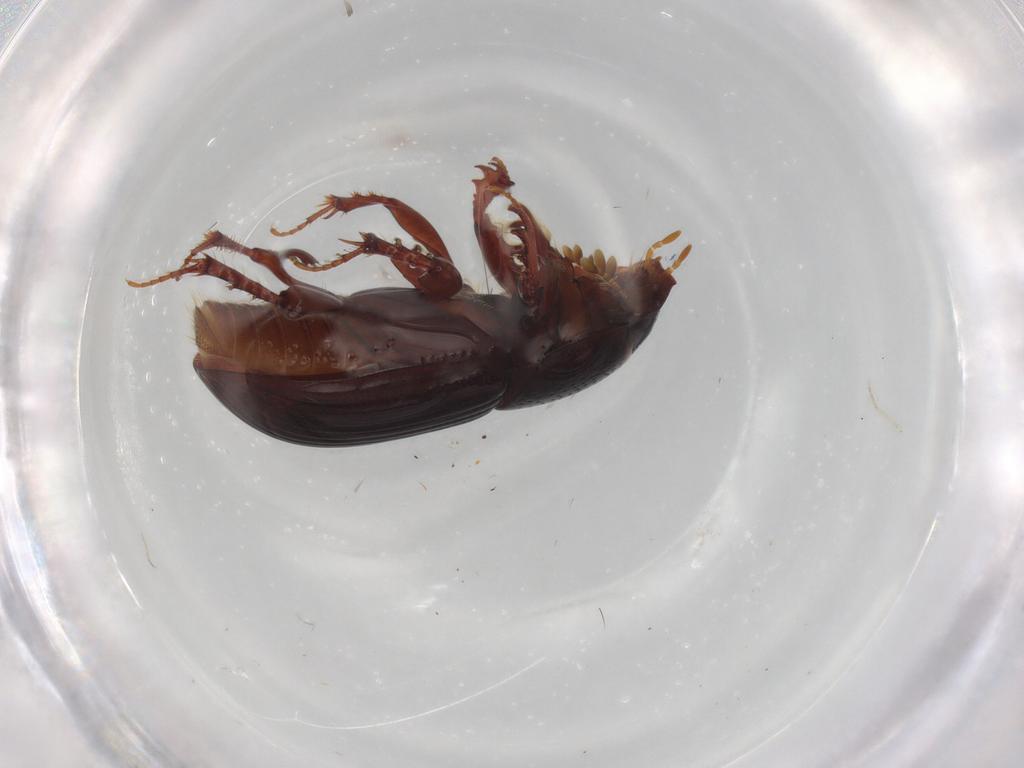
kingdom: Animalia
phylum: Arthropoda
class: Insecta
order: Coleoptera
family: Scarabaeidae
